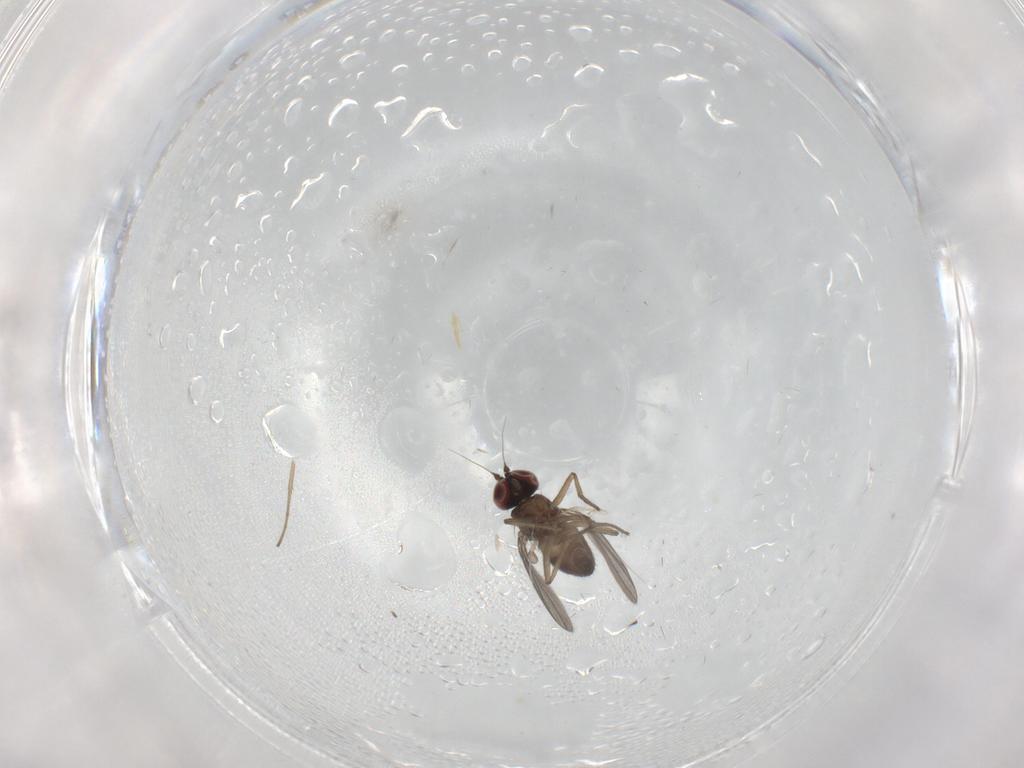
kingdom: Animalia
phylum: Arthropoda
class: Insecta
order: Diptera
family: Dolichopodidae
